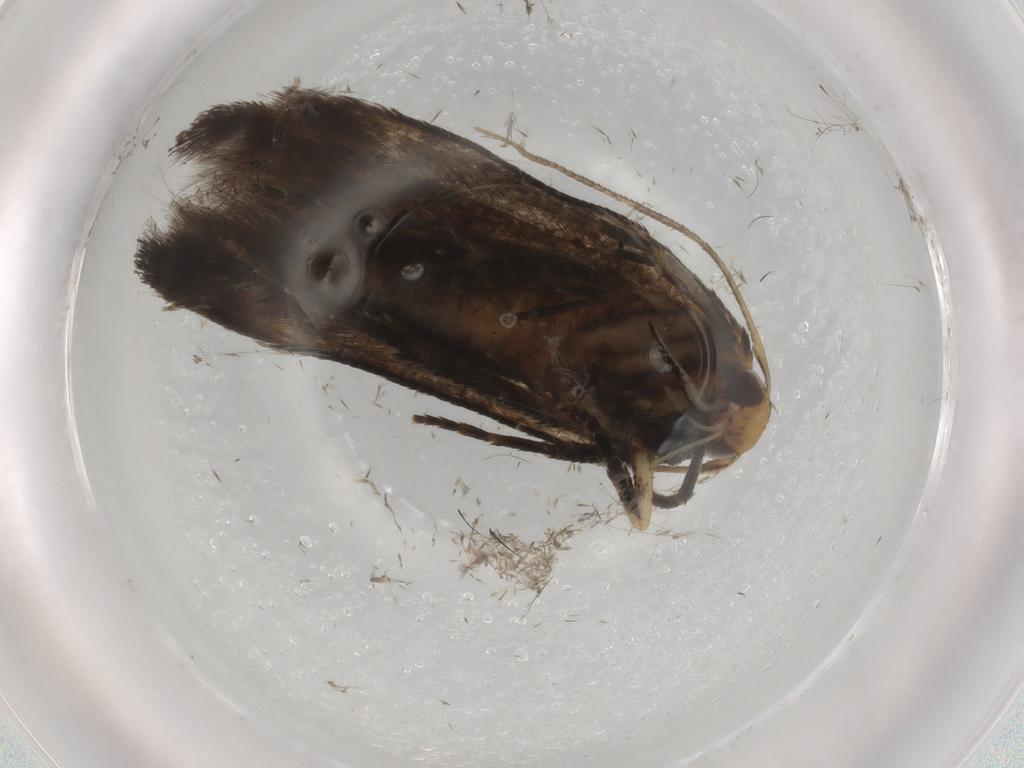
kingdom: Animalia
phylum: Arthropoda
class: Insecta
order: Lepidoptera
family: Cosmopterigidae
